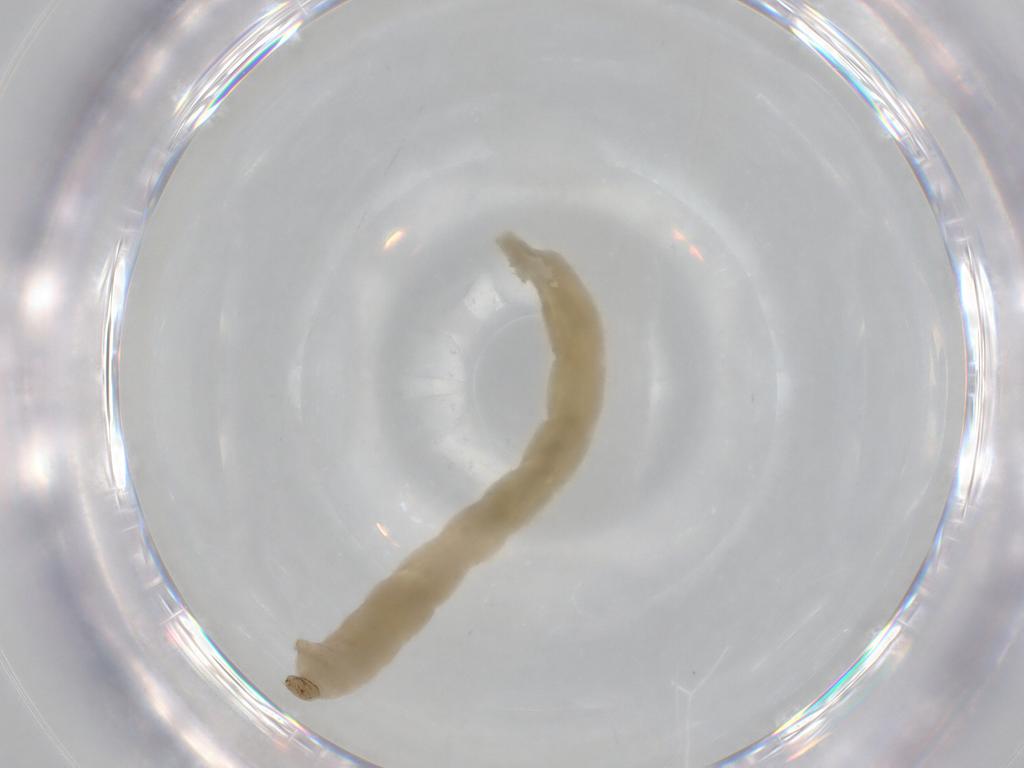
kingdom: Animalia
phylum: Arthropoda
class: Insecta
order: Diptera
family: Chironomidae
